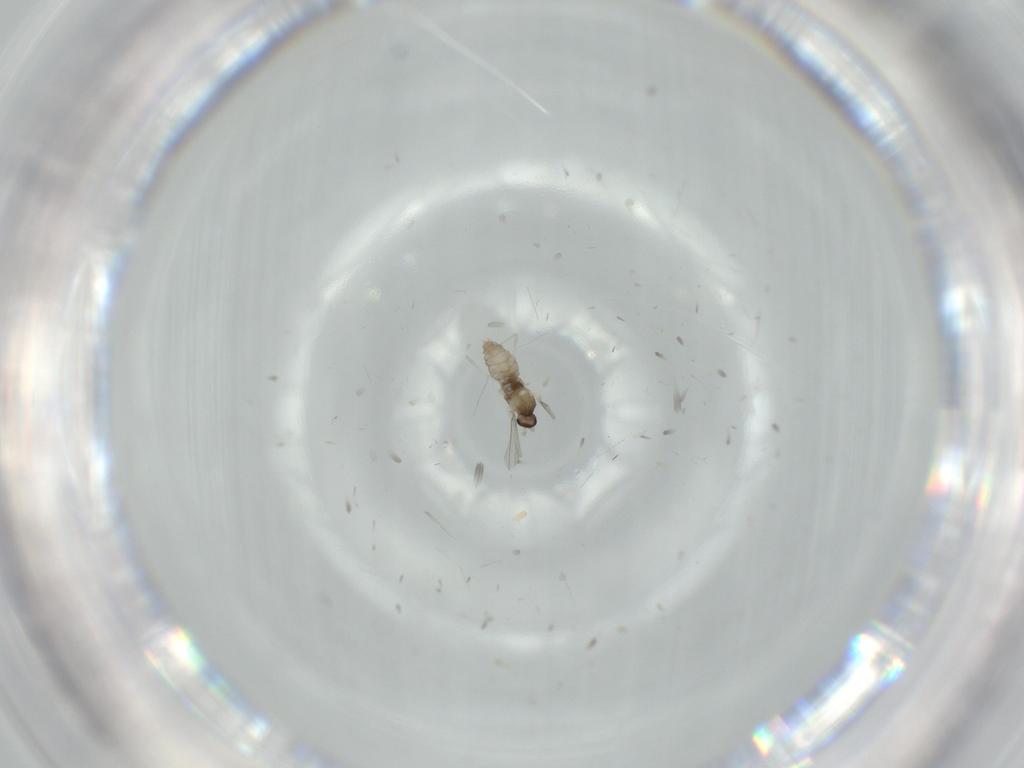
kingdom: Animalia
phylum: Arthropoda
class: Insecta
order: Diptera
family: Cecidomyiidae
